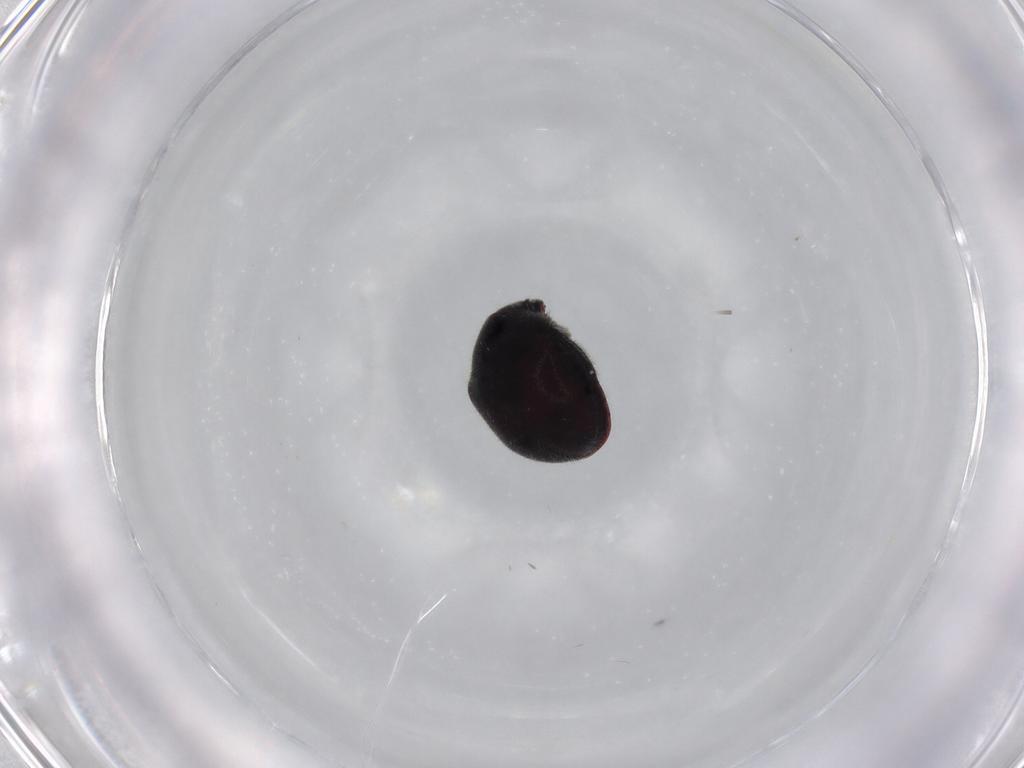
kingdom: Animalia
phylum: Arthropoda
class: Insecta
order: Coleoptera
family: Ptinidae
